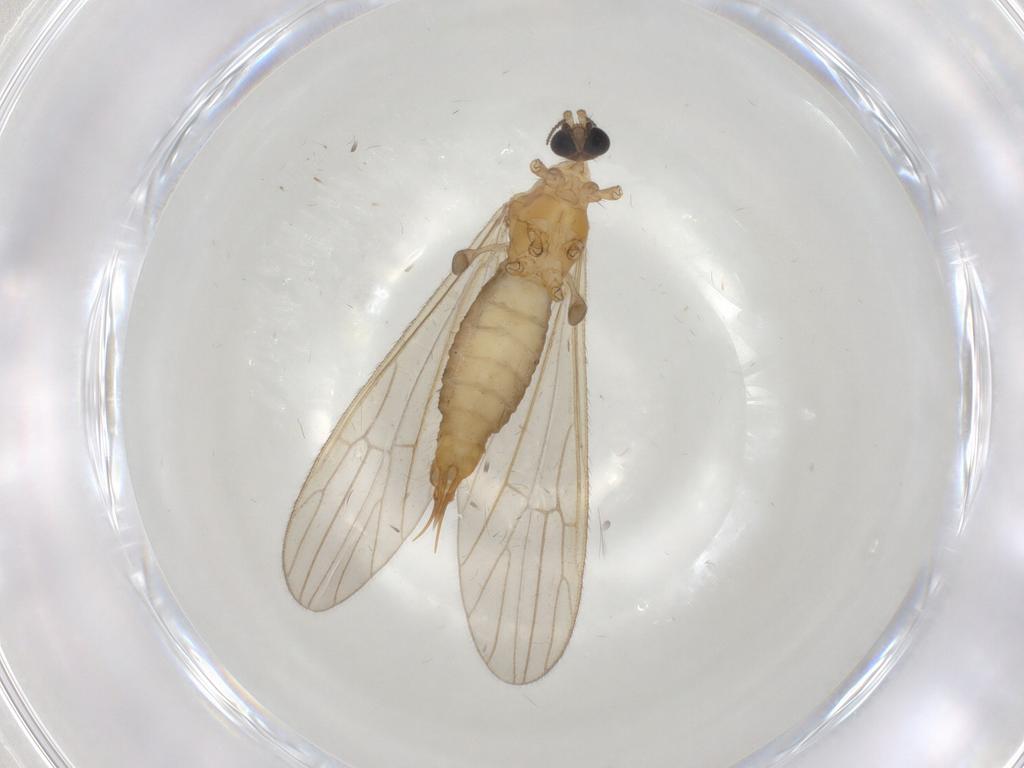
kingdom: Animalia
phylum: Arthropoda
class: Insecta
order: Diptera
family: Limoniidae
